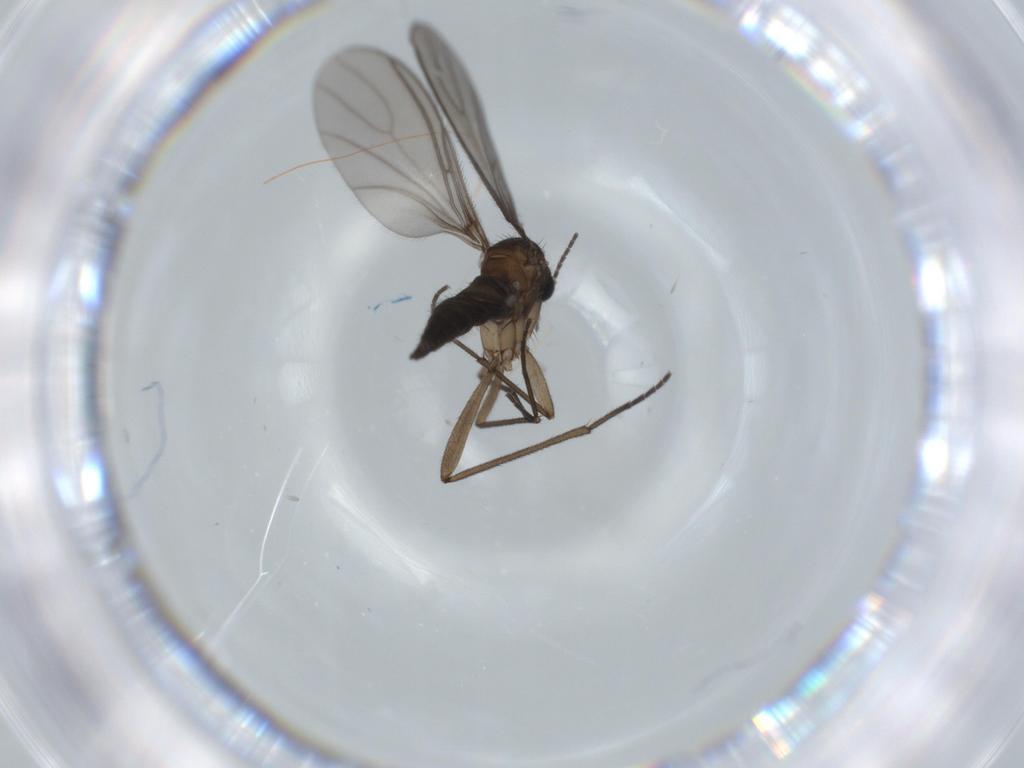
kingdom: Animalia
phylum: Arthropoda
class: Insecta
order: Diptera
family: Sciaridae
